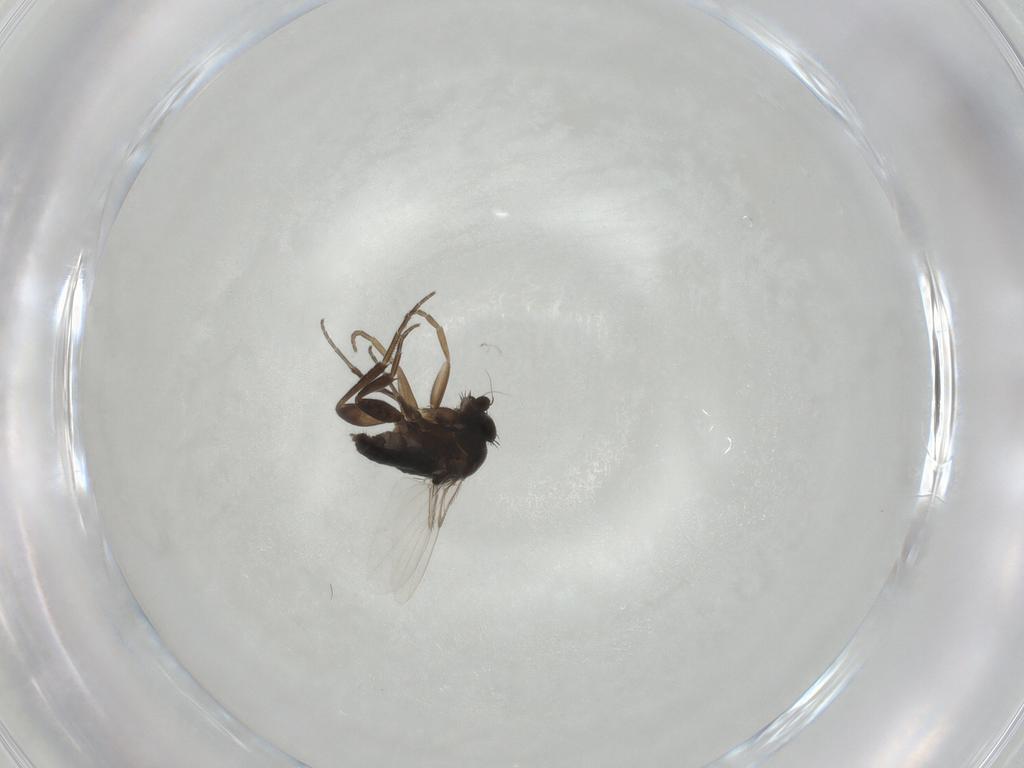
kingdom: Animalia
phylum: Arthropoda
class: Insecta
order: Diptera
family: Phoridae
